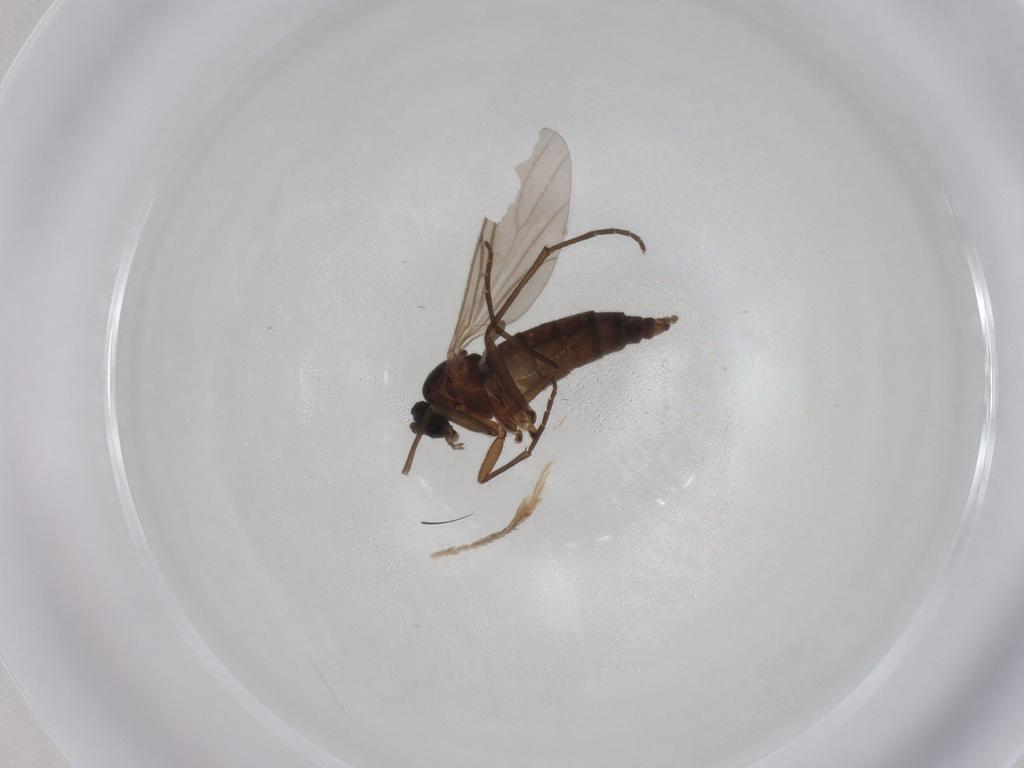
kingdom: Animalia
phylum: Arthropoda
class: Insecta
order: Diptera
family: Sciaridae
